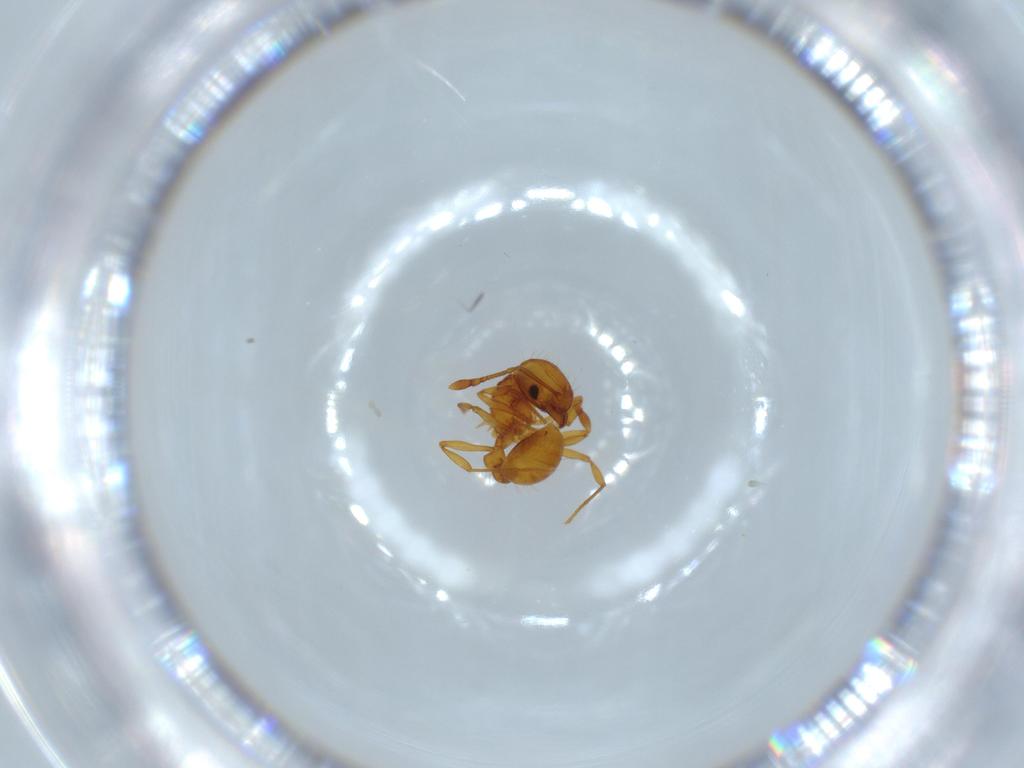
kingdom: Animalia
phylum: Arthropoda
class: Insecta
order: Hymenoptera
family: Formicidae
